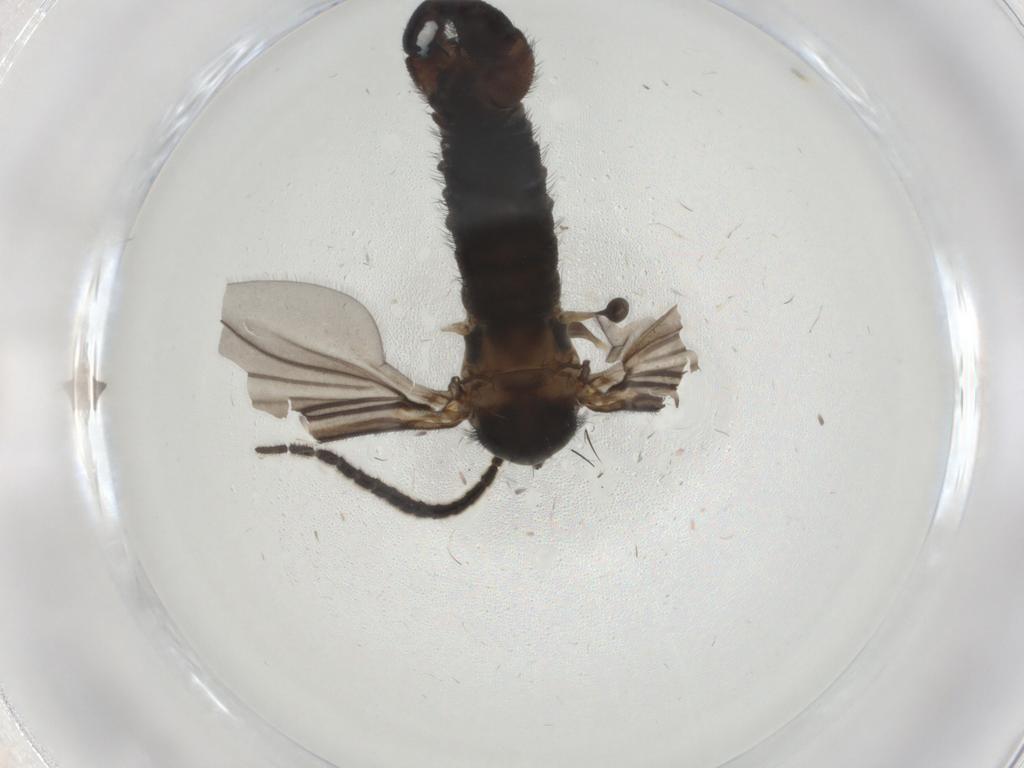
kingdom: Animalia
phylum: Arthropoda
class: Insecta
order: Diptera
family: Sciaridae
